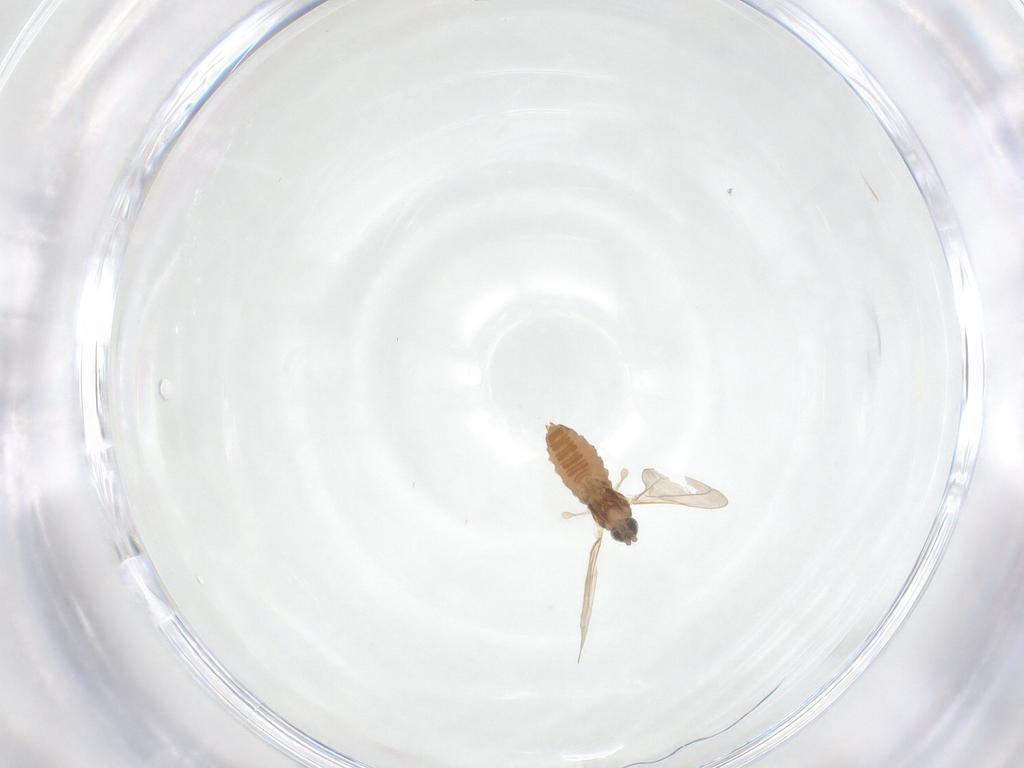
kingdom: Animalia
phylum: Arthropoda
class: Insecta
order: Diptera
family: Cecidomyiidae
